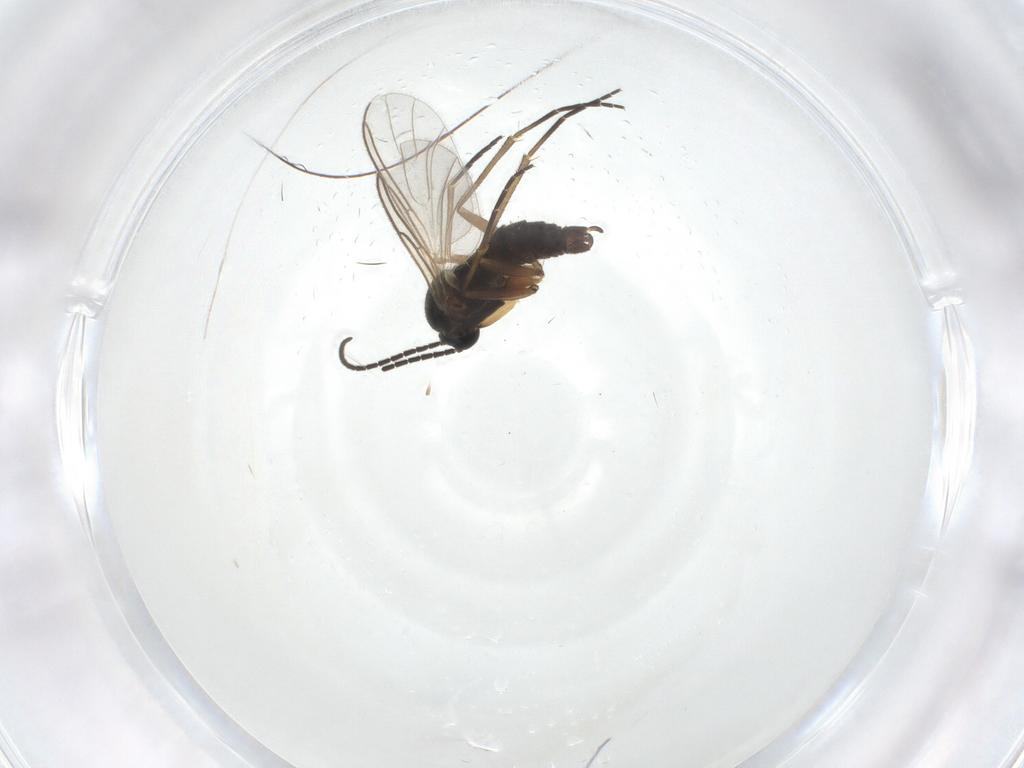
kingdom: Animalia
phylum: Arthropoda
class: Insecta
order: Diptera
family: Sciaridae
